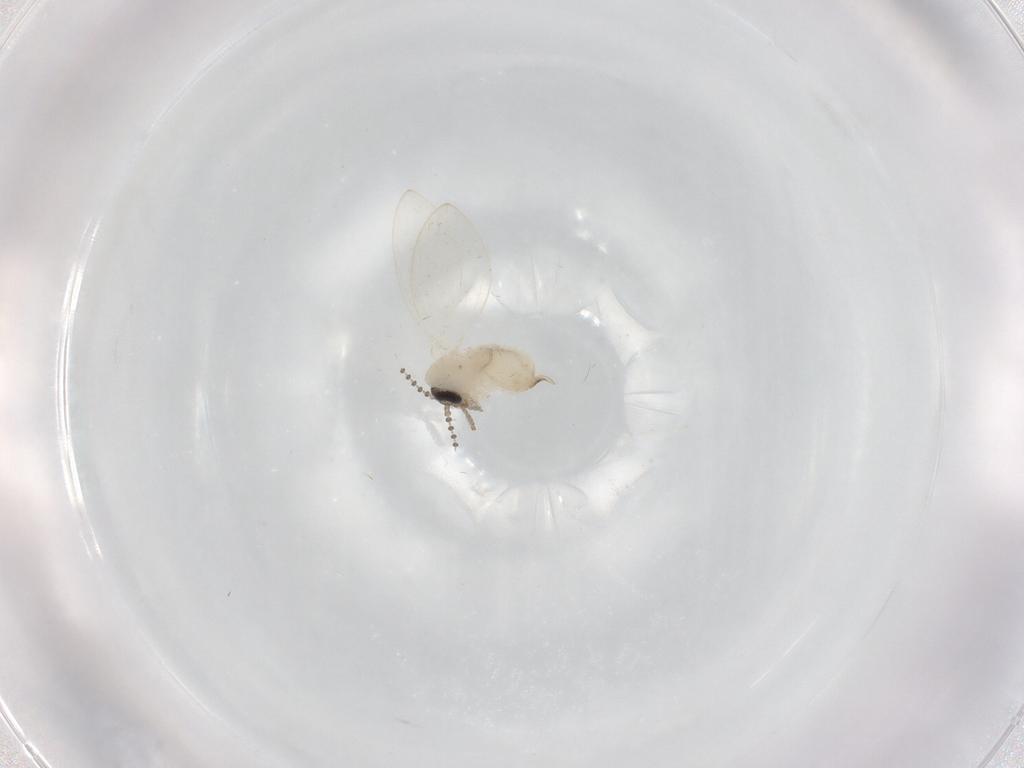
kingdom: Animalia
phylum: Arthropoda
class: Insecta
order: Diptera
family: Psychodidae
